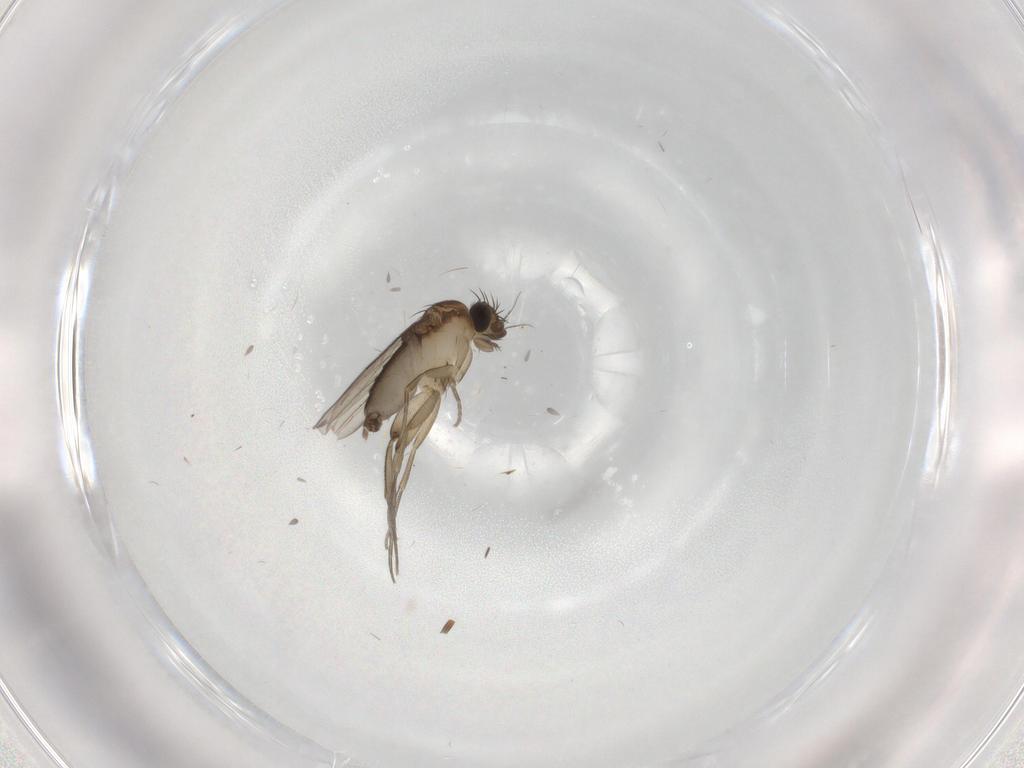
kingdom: Animalia
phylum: Arthropoda
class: Insecta
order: Diptera
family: Phoridae
